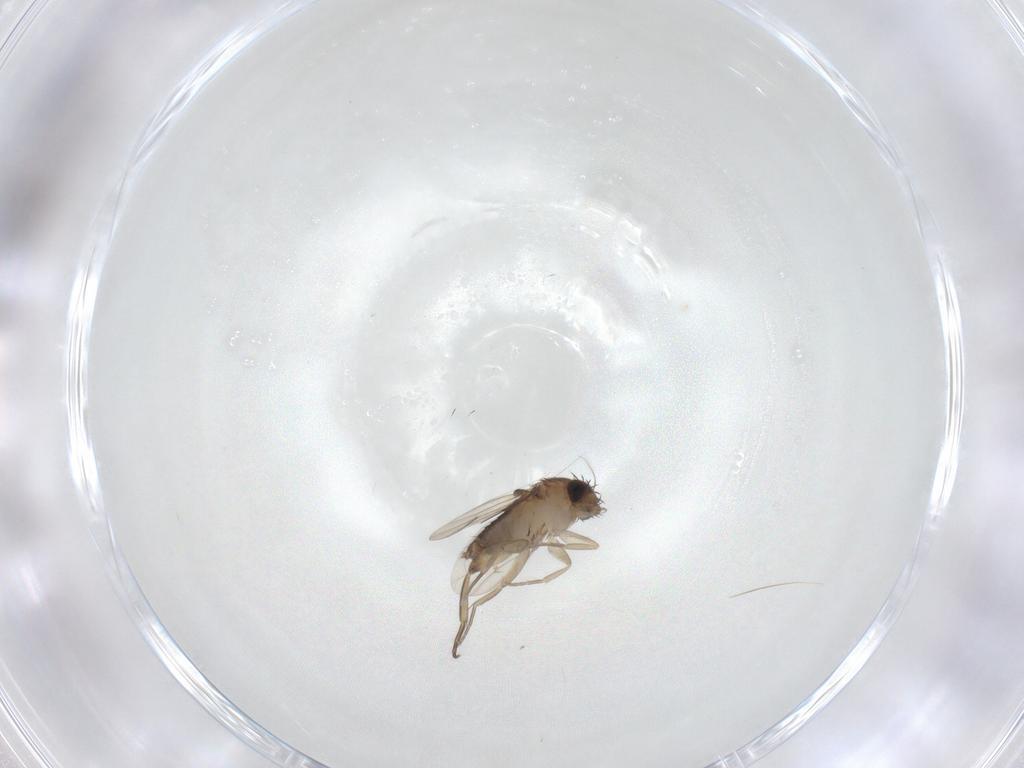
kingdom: Animalia
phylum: Arthropoda
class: Insecta
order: Diptera
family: Phoridae
